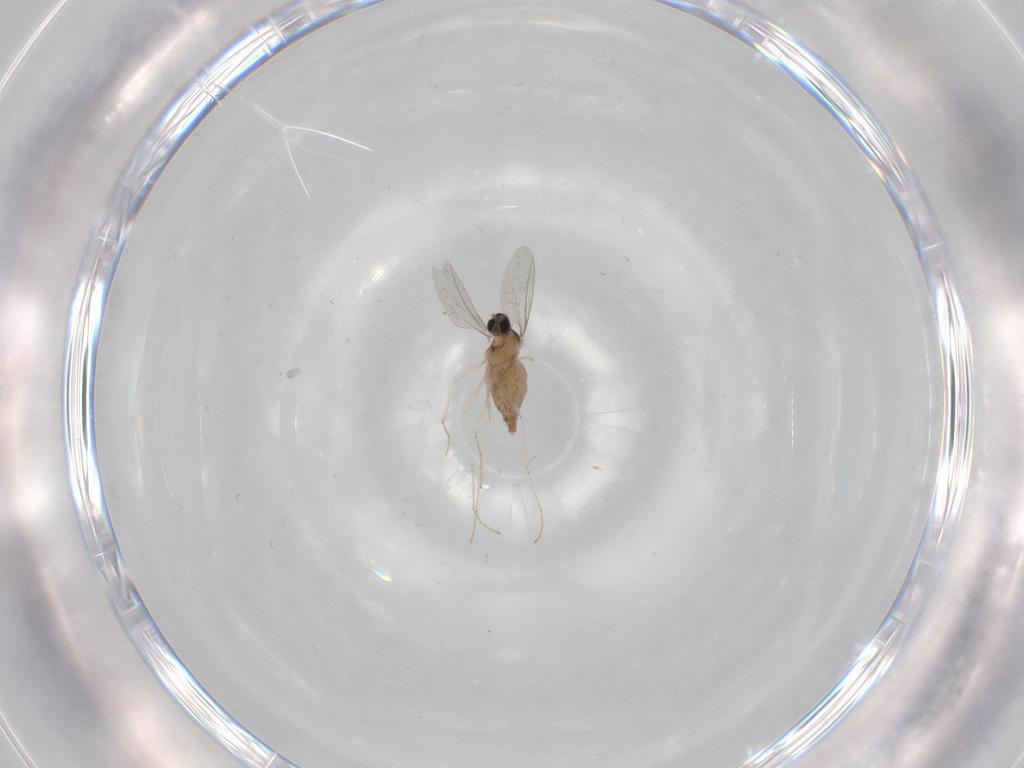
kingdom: Animalia
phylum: Arthropoda
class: Insecta
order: Diptera
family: Cecidomyiidae
